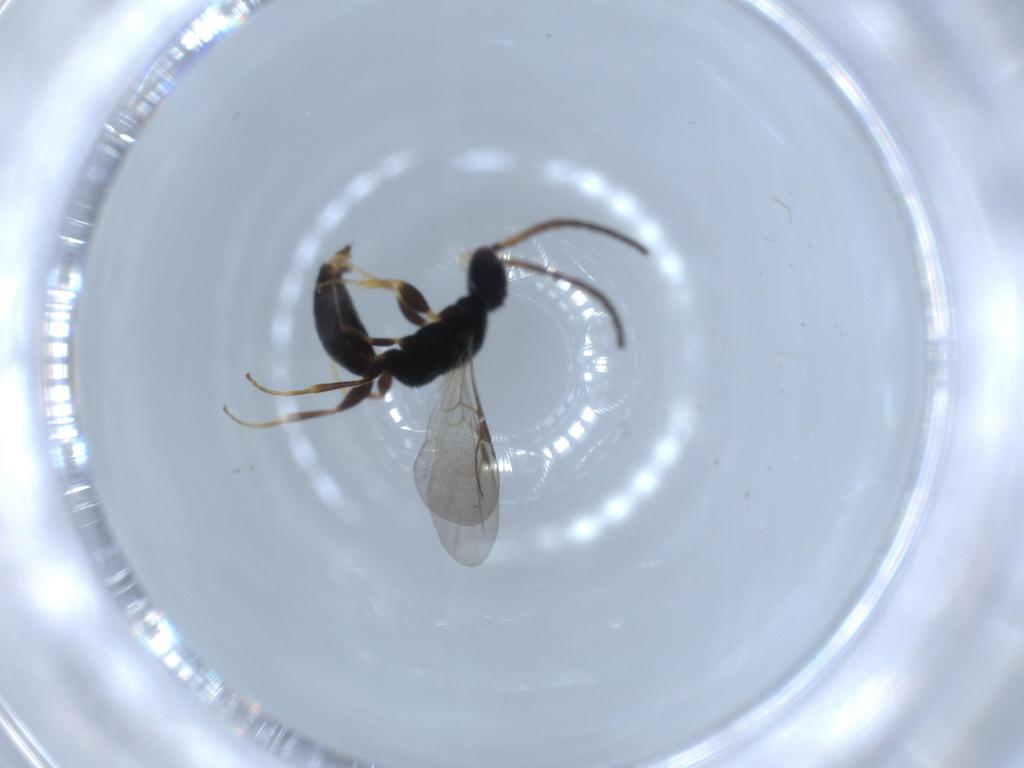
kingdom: Animalia
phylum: Arthropoda
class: Insecta
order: Hymenoptera
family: Bethylidae
